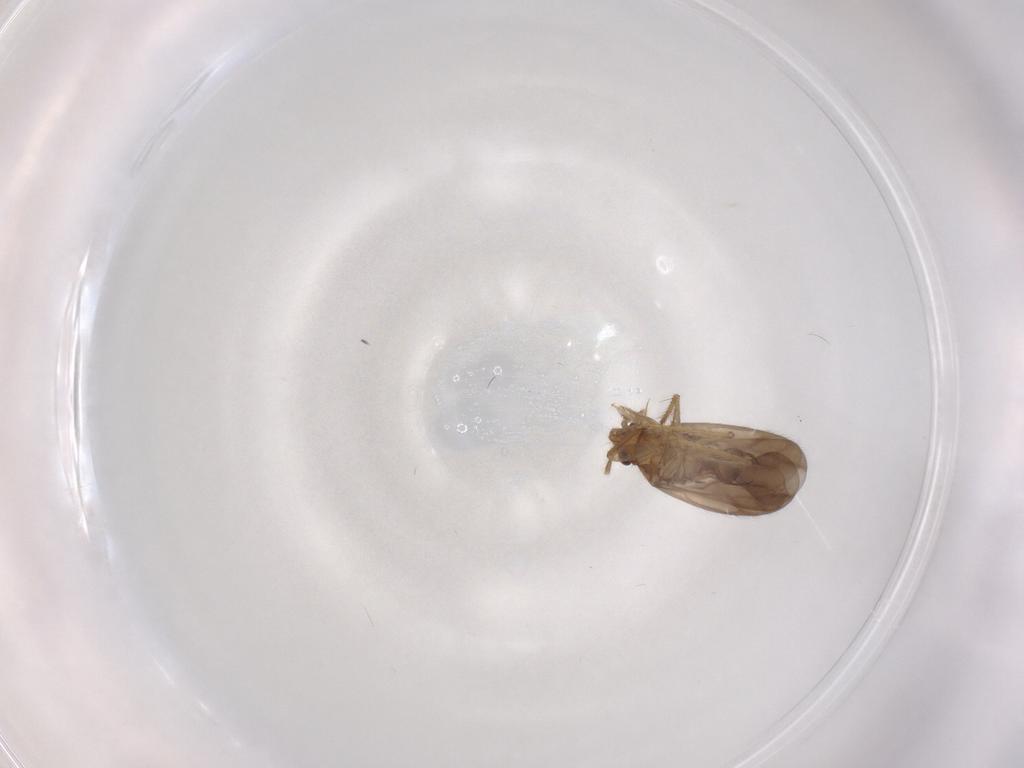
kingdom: Animalia
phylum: Arthropoda
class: Insecta
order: Hemiptera
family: Ceratocombidae
